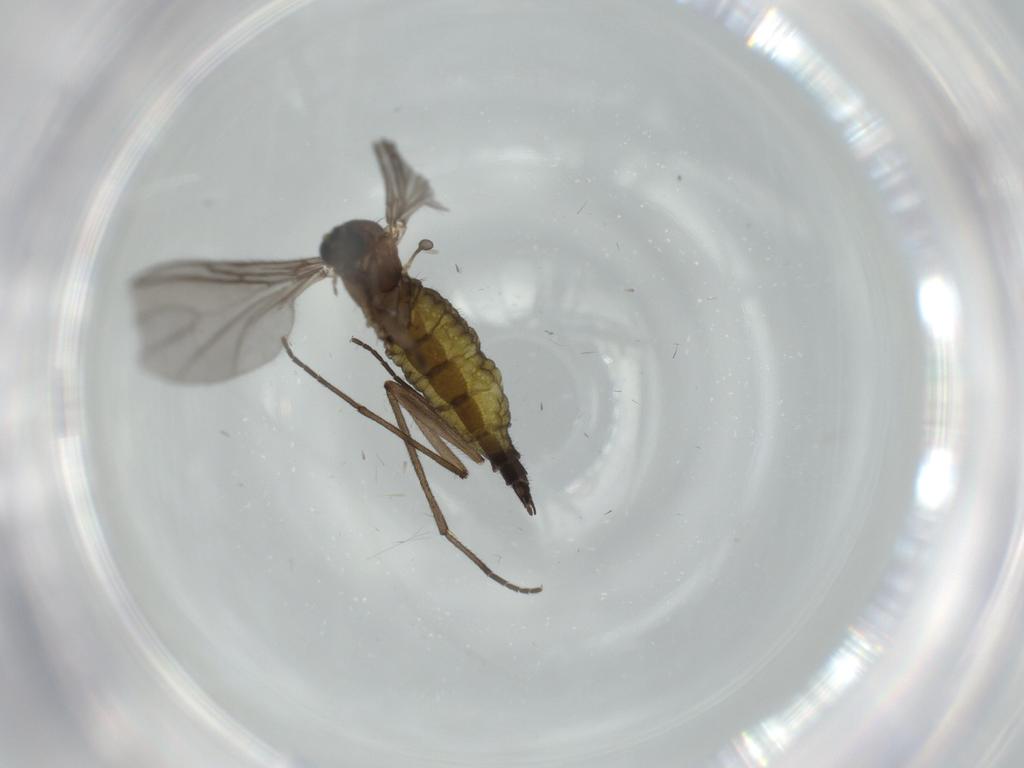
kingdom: Animalia
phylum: Arthropoda
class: Insecta
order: Diptera
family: Sciaridae
